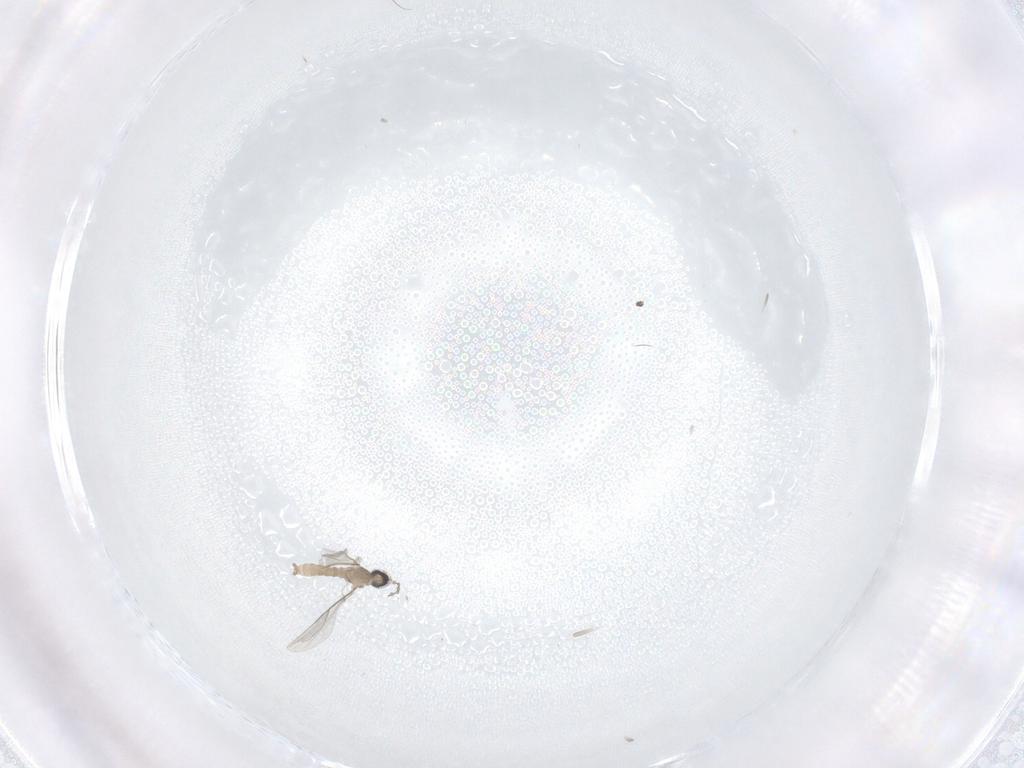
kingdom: Animalia
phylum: Arthropoda
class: Insecta
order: Diptera
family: Cecidomyiidae
